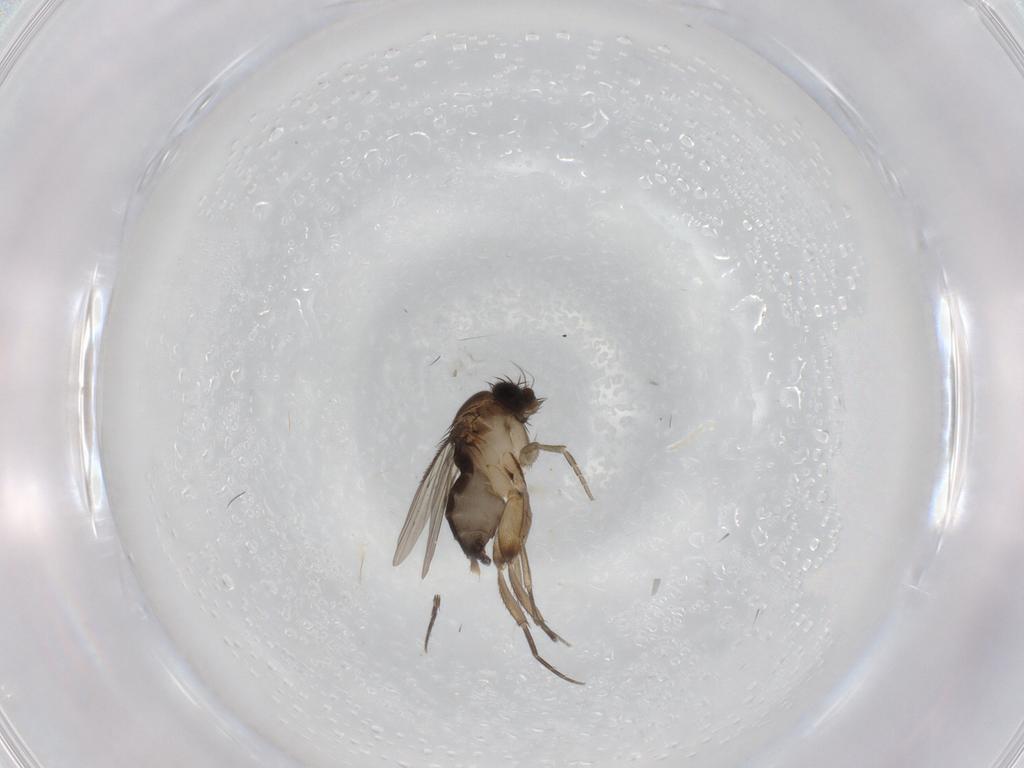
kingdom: Animalia
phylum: Arthropoda
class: Insecta
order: Diptera
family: Phoridae
